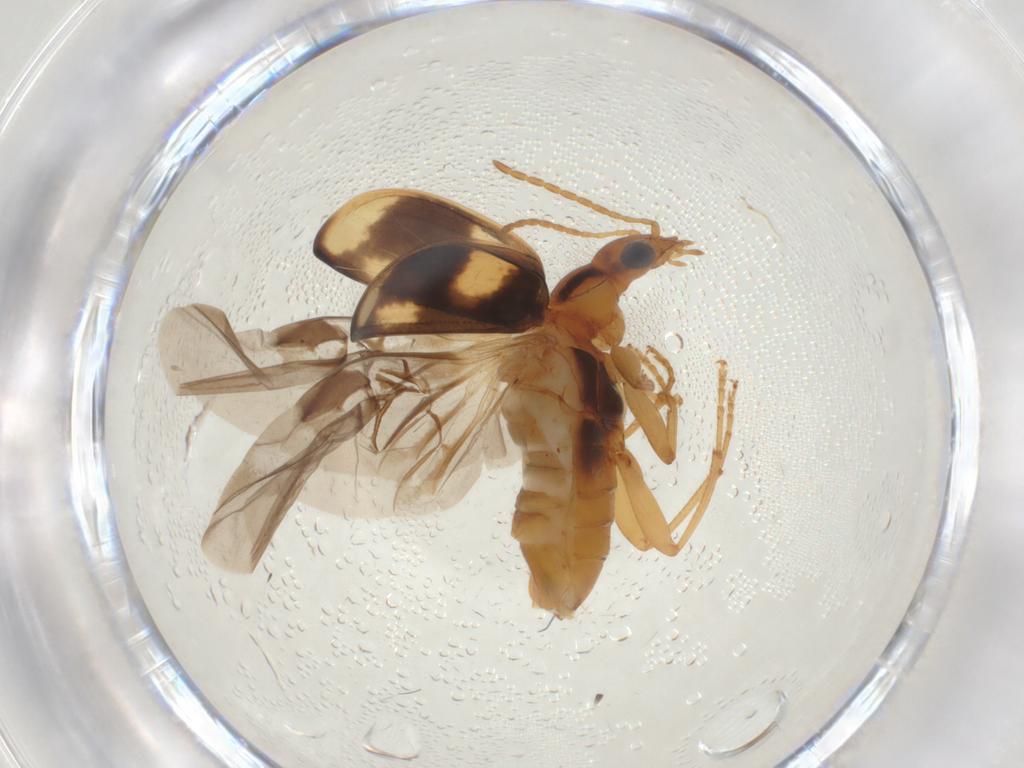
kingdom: Animalia
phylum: Arthropoda
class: Insecta
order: Coleoptera
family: Carabidae
